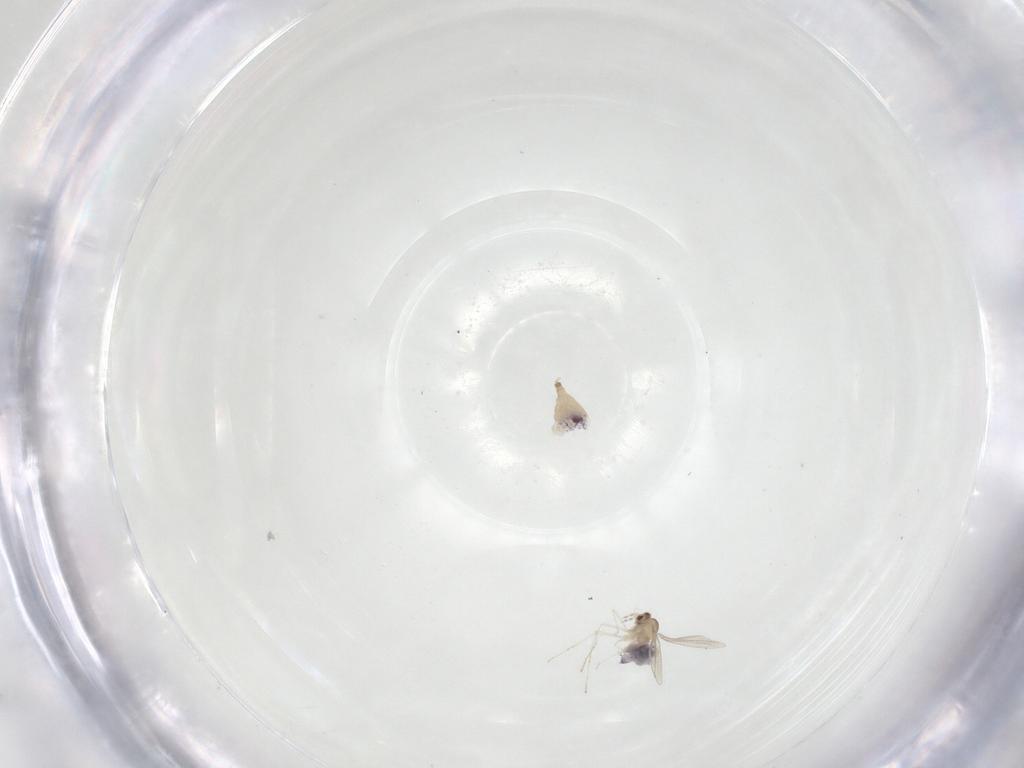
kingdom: Animalia
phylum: Arthropoda
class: Insecta
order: Diptera
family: Cecidomyiidae
